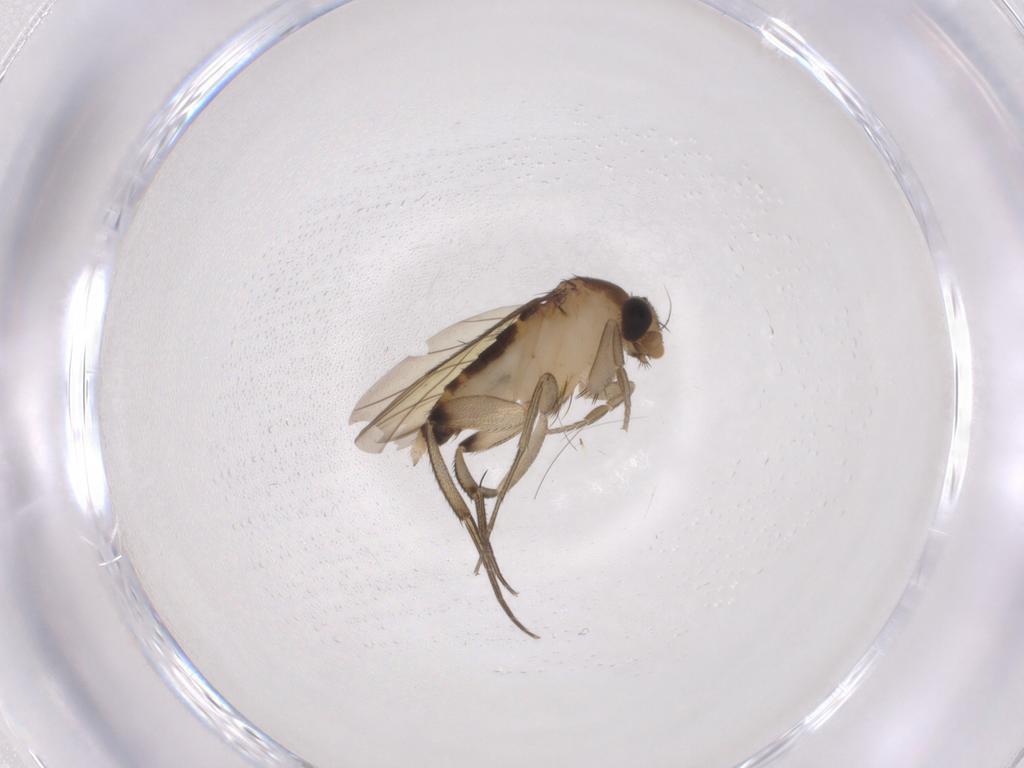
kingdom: Animalia
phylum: Arthropoda
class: Insecta
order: Diptera
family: Phoridae
